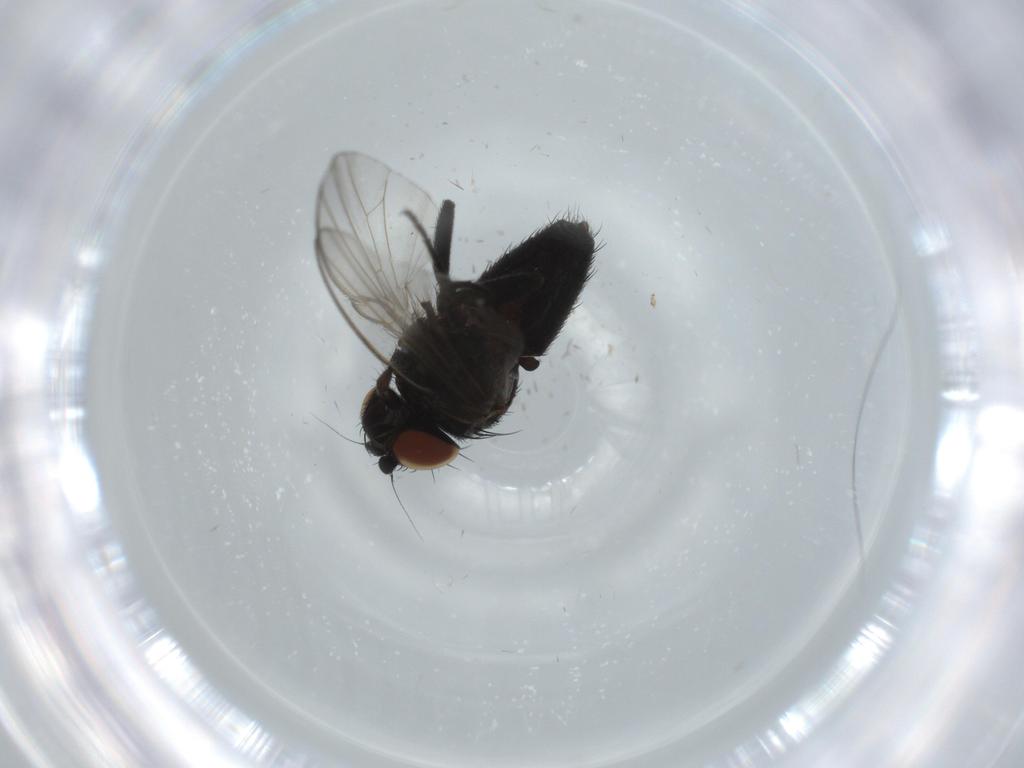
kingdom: Animalia
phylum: Arthropoda
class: Insecta
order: Diptera
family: Milichiidae
